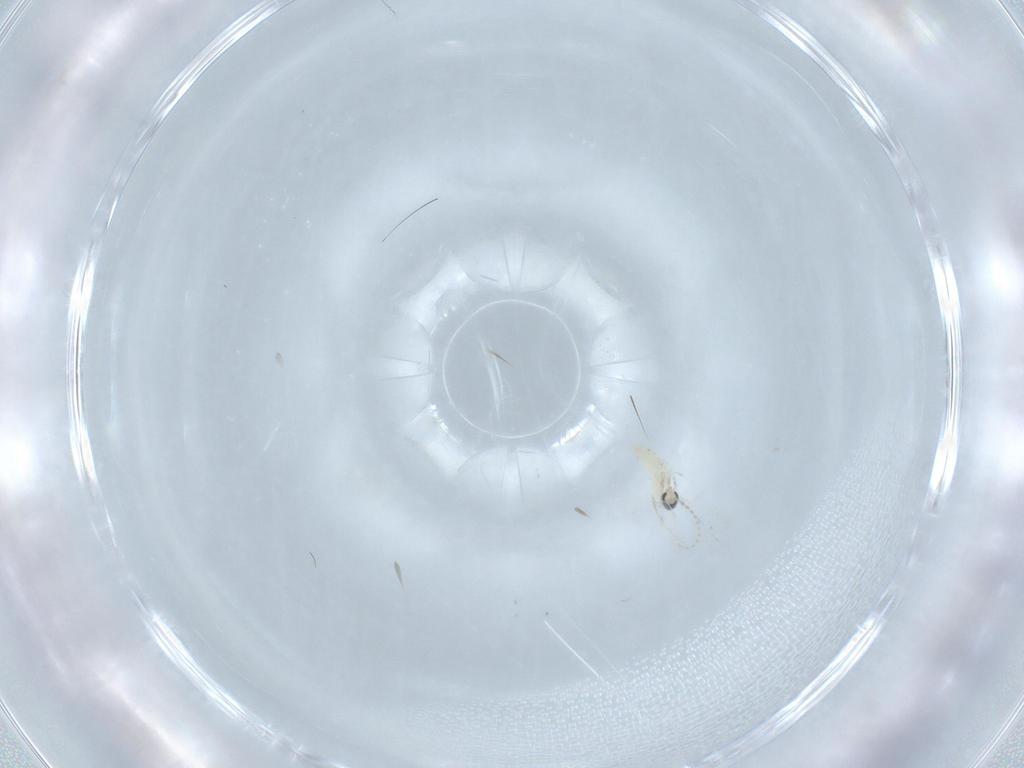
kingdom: Animalia
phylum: Arthropoda
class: Insecta
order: Diptera
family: Cecidomyiidae
